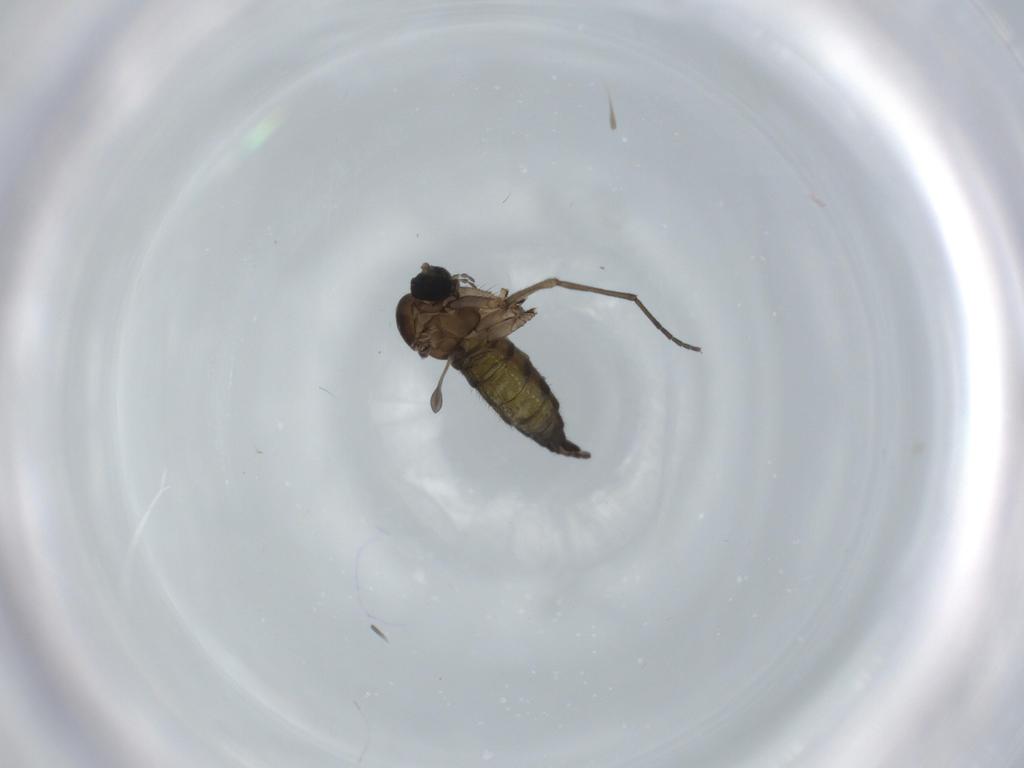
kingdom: Animalia
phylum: Arthropoda
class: Insecta
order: Diptera
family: Sciaridae
